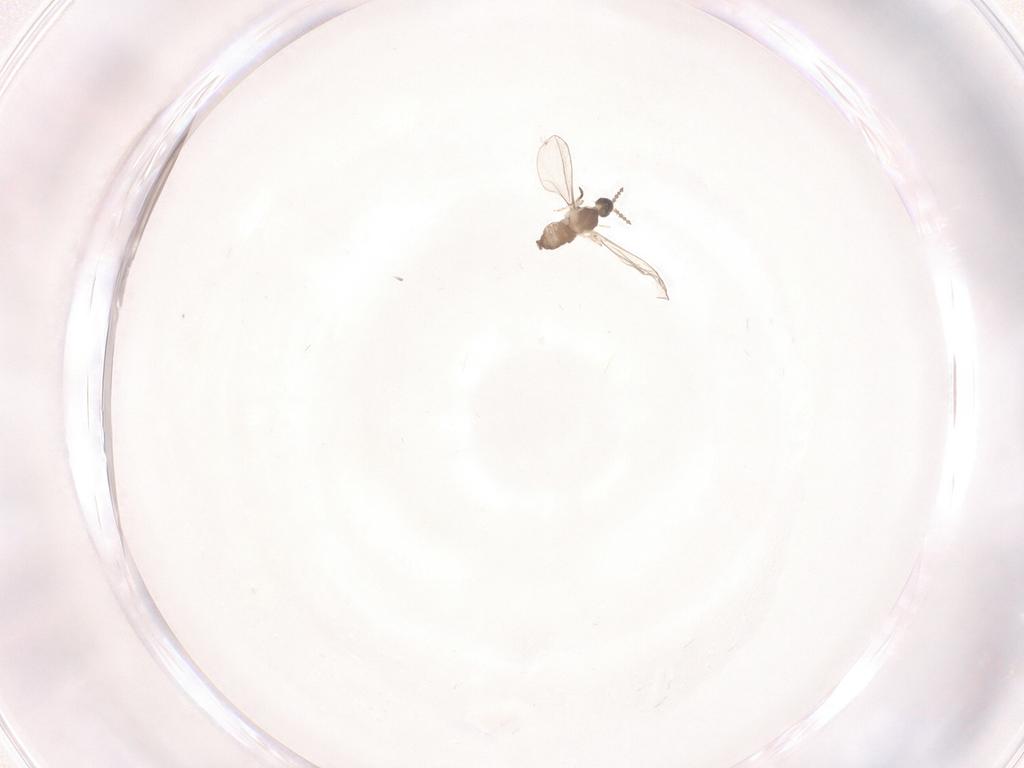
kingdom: Animalia
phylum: Arthropoda
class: Insecta
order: Diptera
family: Cecidomyiidae
